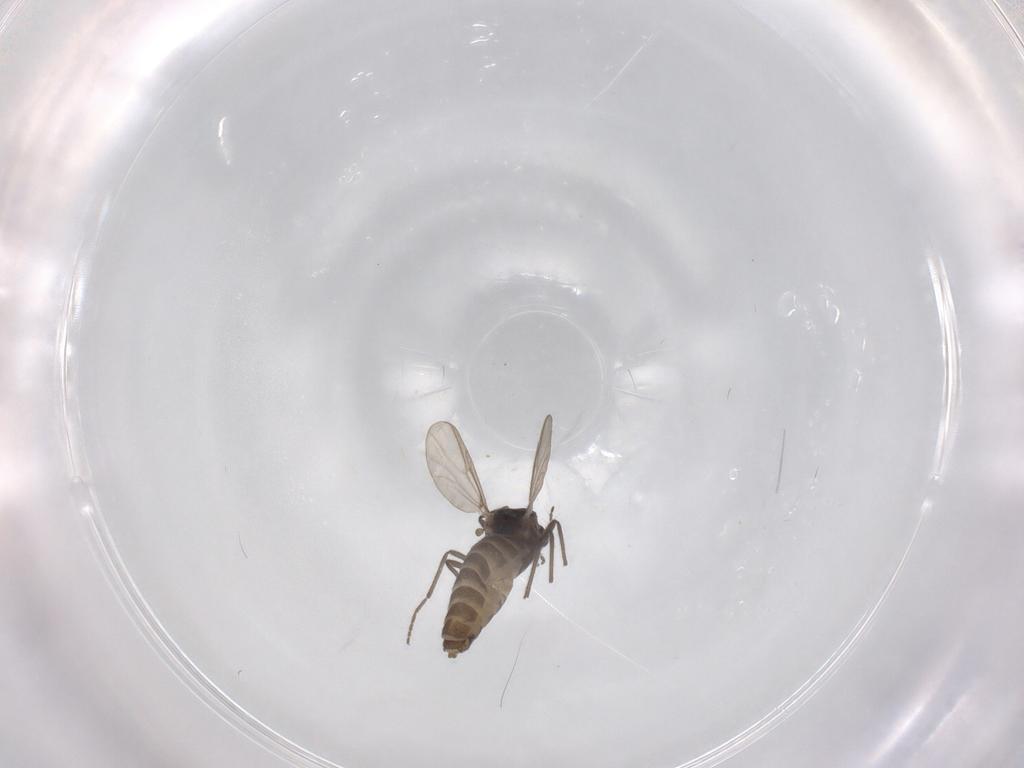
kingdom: Animalia
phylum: Arthropoda
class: Insecta
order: Diptera
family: Chironomidae
